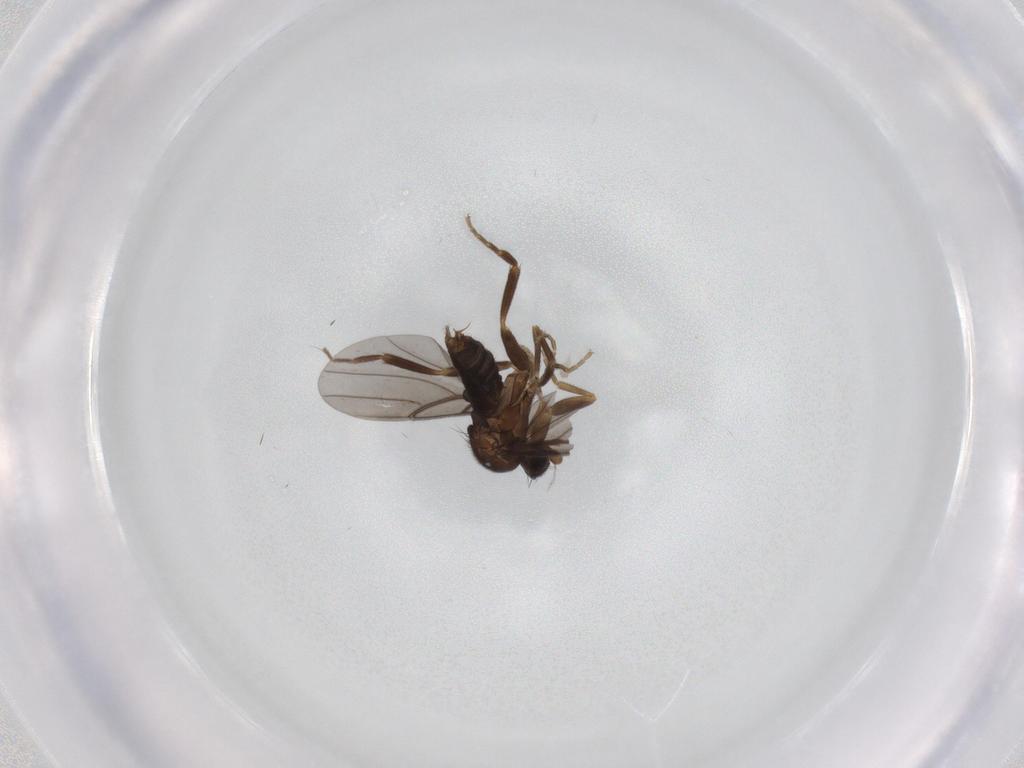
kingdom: Animalia
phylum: Arthropoda
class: Insecta
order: Diptera
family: Phoridae
